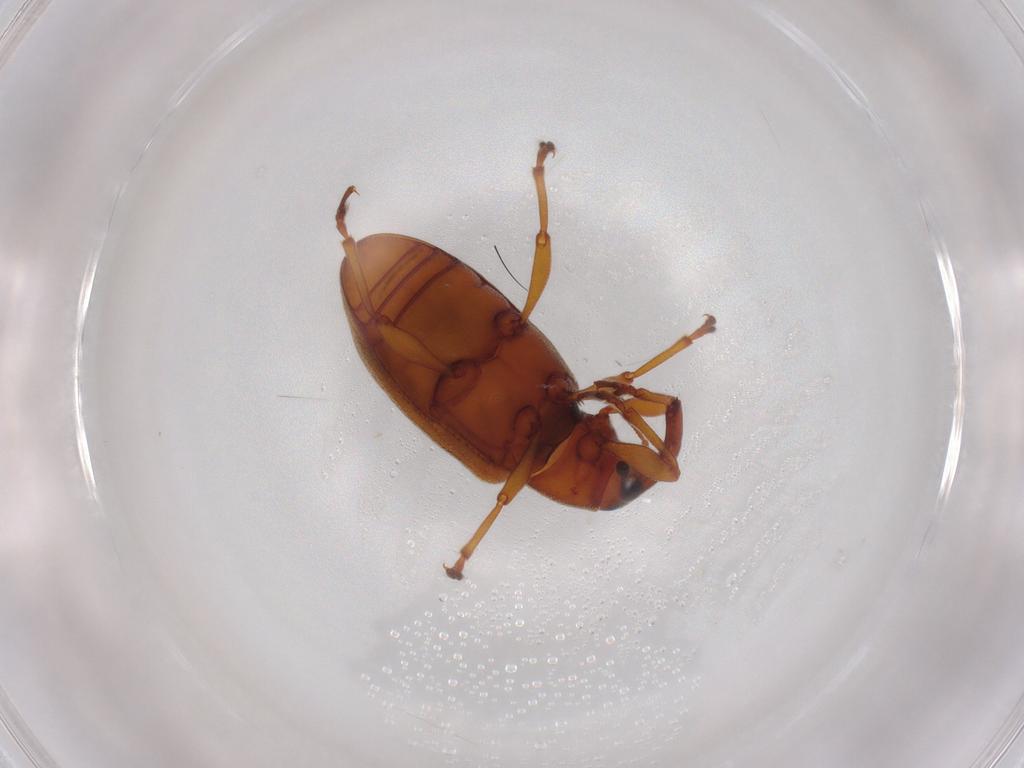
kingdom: Animalia
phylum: Arthropoda
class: Insecta
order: Coleoptera
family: Curculionidae
